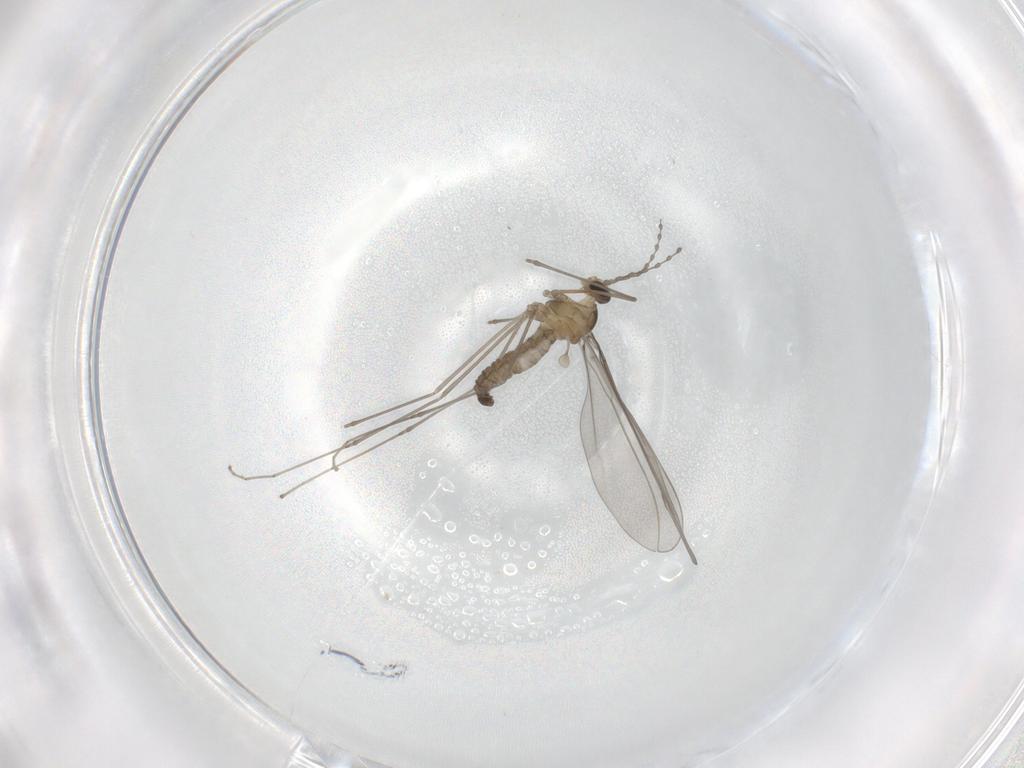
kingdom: Animalia
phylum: Arthropoda
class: Insecta
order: Diptera
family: Cecidomyiidae
